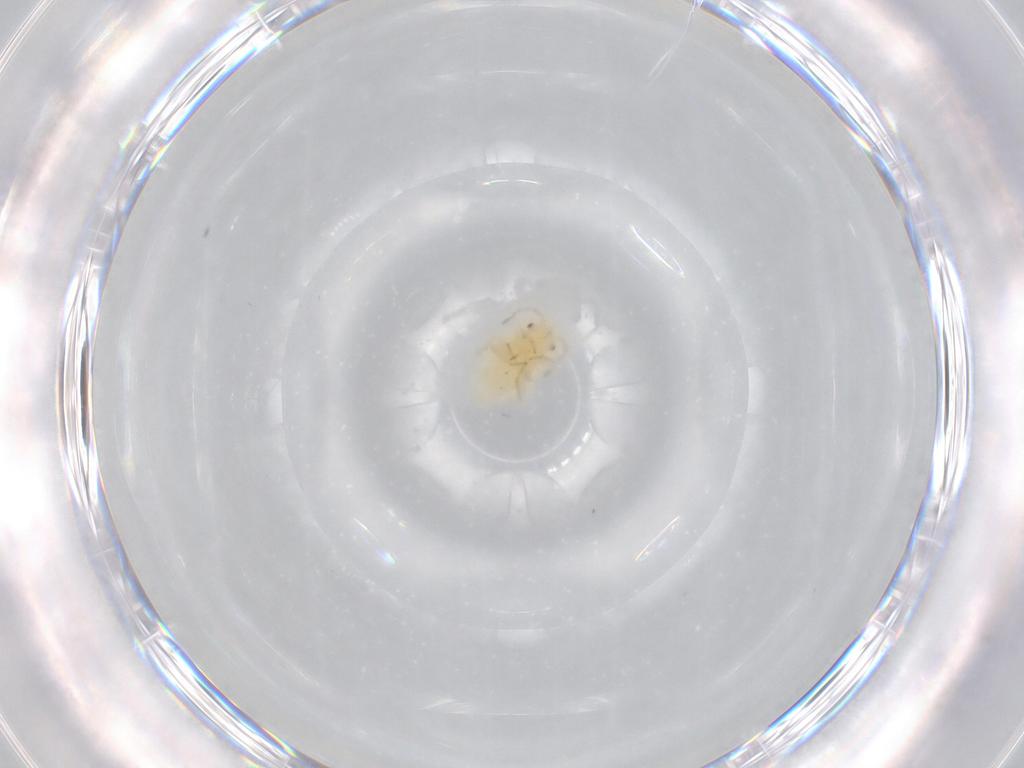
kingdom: Animalia
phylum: Arthropoda
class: Insecta
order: Hemiptera
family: Miridae
